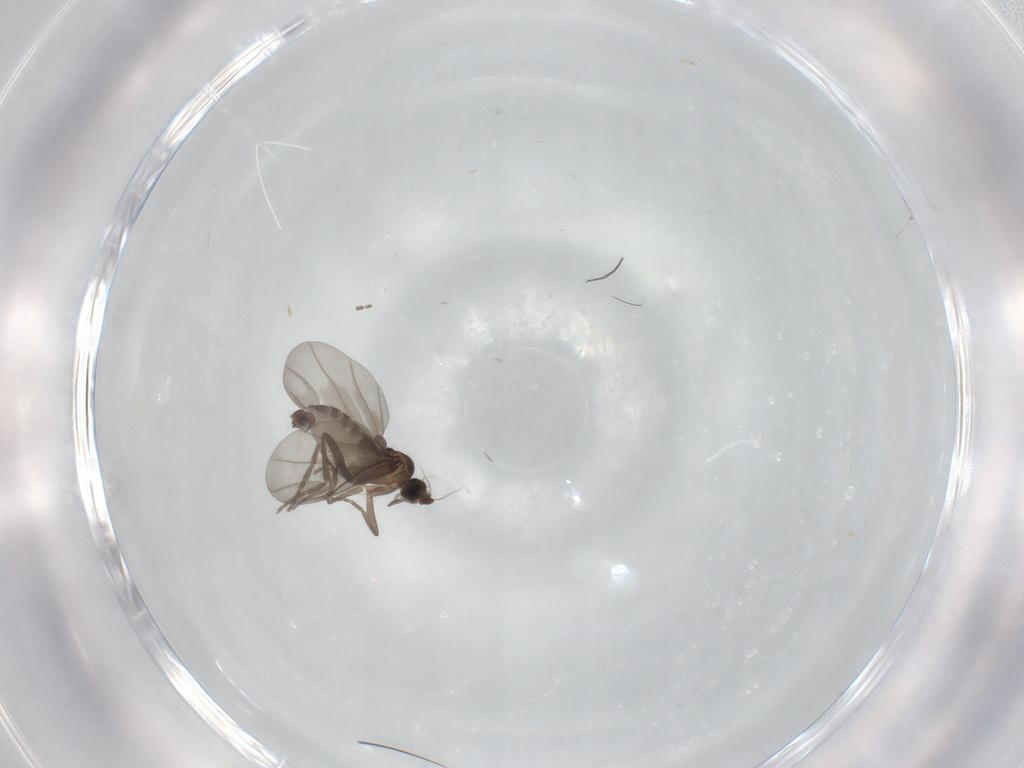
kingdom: Animalia
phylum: Arthropoda
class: Insecta
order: Diptera
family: Phoridae
